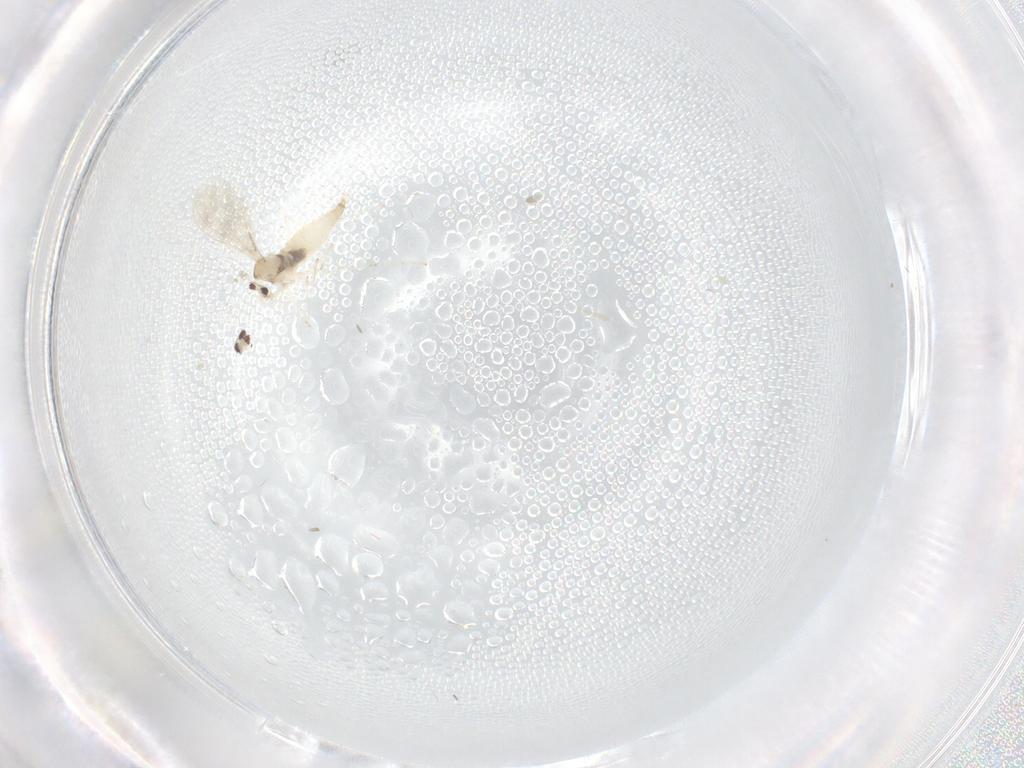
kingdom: Animalia
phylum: Arthropoda
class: Insecta
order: Diptera
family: Cecidomyiidae
